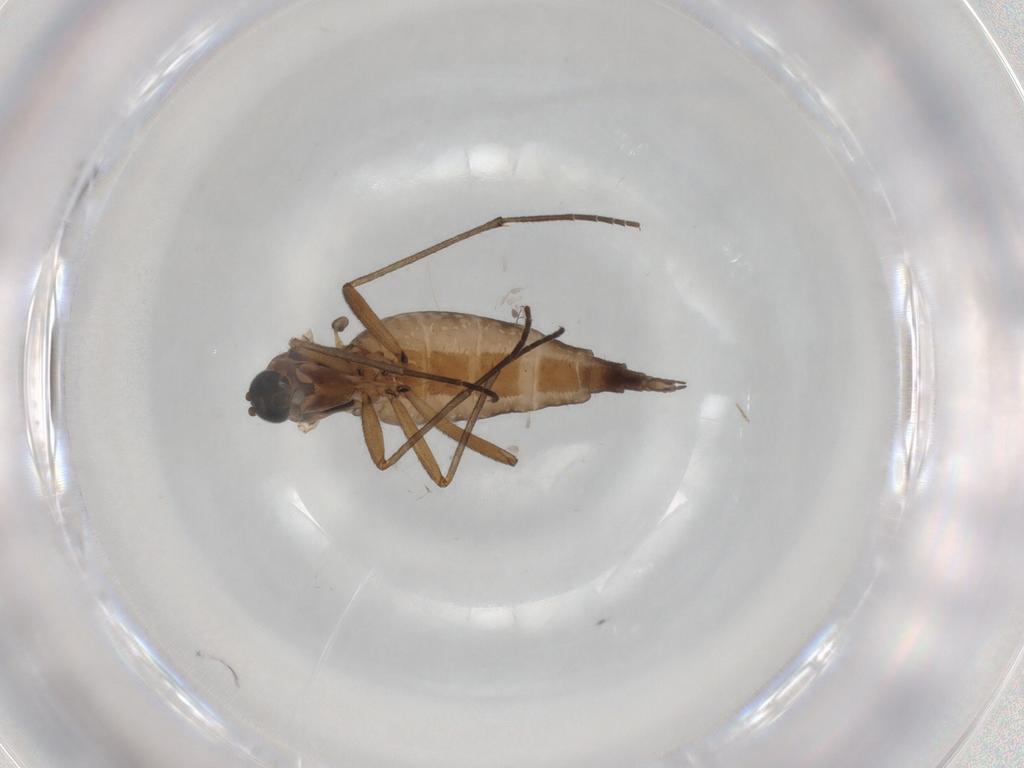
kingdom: Animalia
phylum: Arthropoda
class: Insecta
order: Diptera
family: Sciaridae
